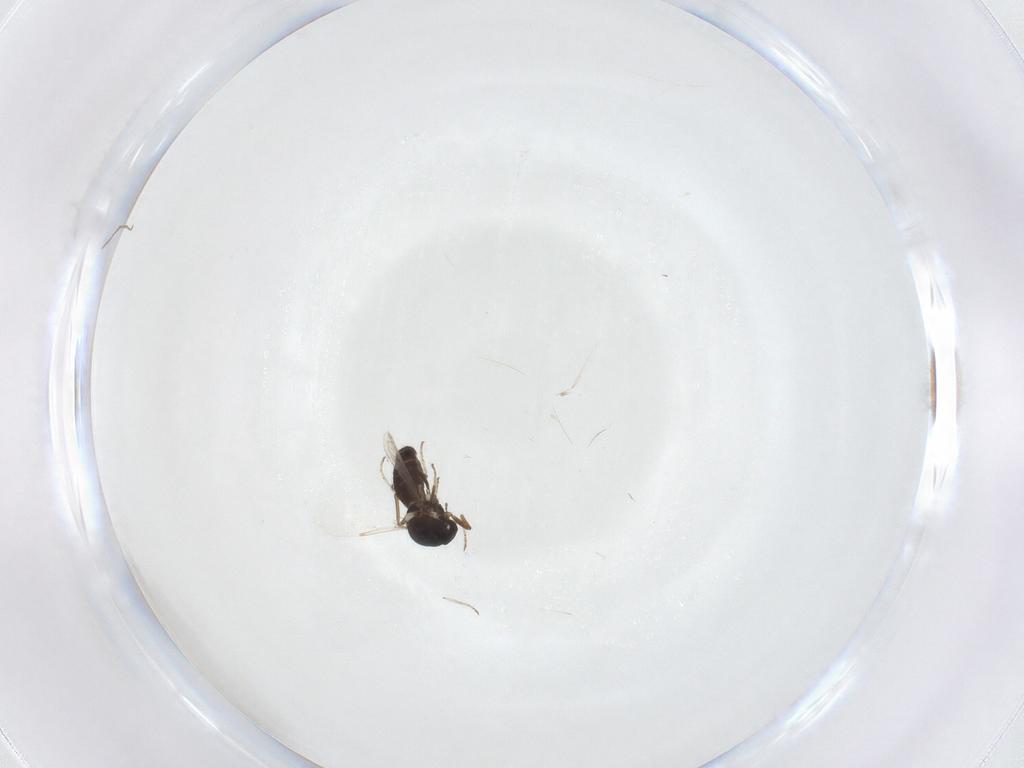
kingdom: Animalia
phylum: Arthropoda
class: Insecta
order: Diptera
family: Ceratopogonidae
